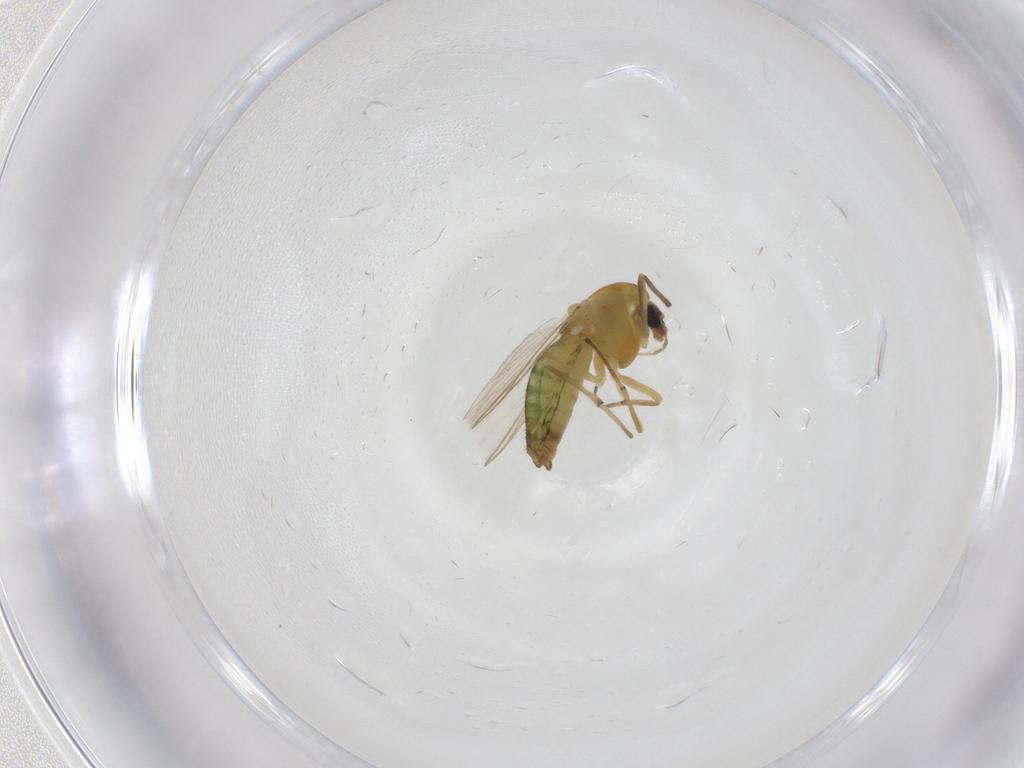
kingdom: Animalia
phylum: Arthropoda
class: Insecta
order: Diptera
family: Chironomidae
